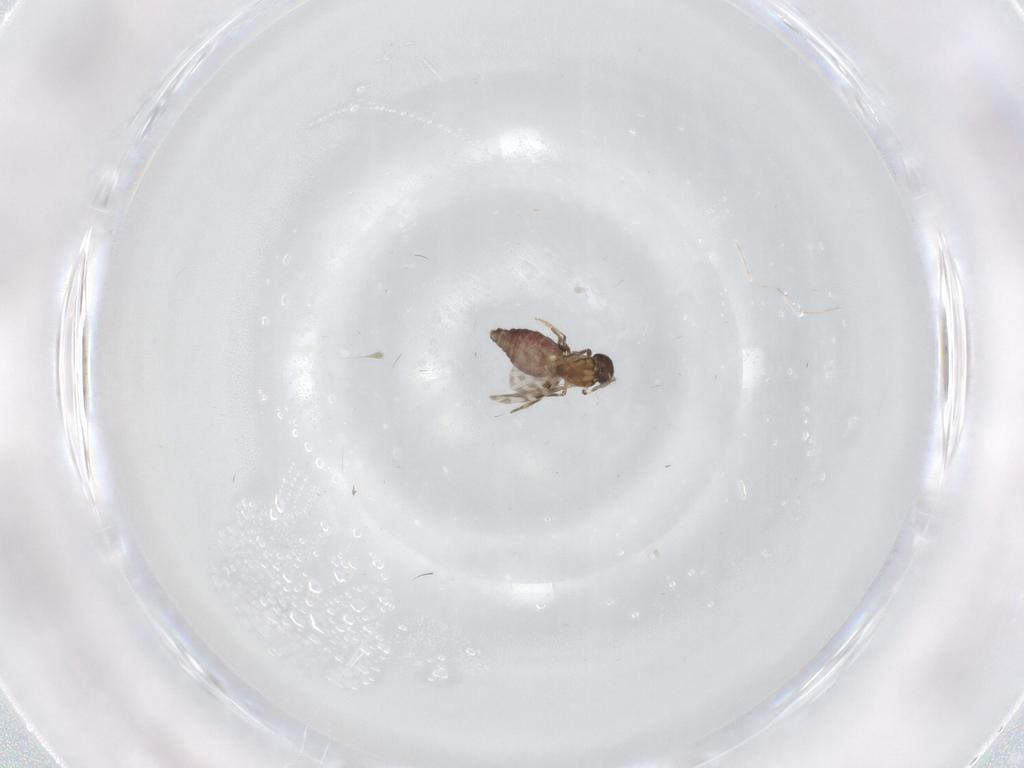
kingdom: Animalia
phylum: Arthropoda
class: Insecta
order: Diptera
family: Ceratopogonidae
